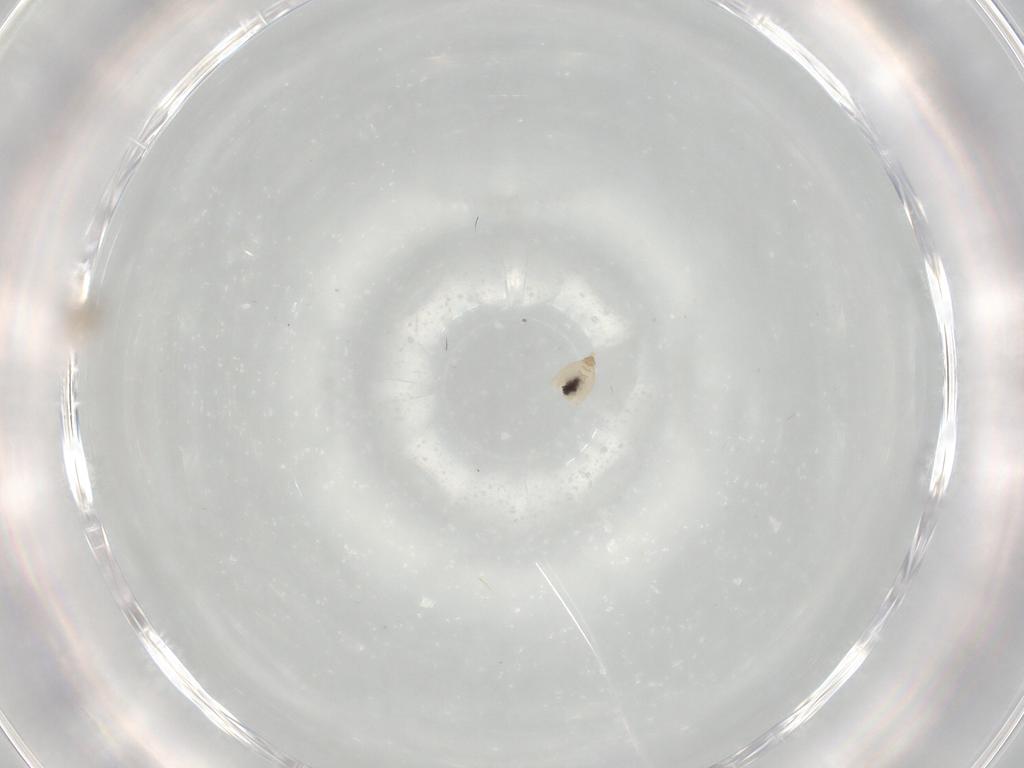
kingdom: Animalia
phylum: Arthropoda
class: Insecta
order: Diptera
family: Cecidomyiidae
